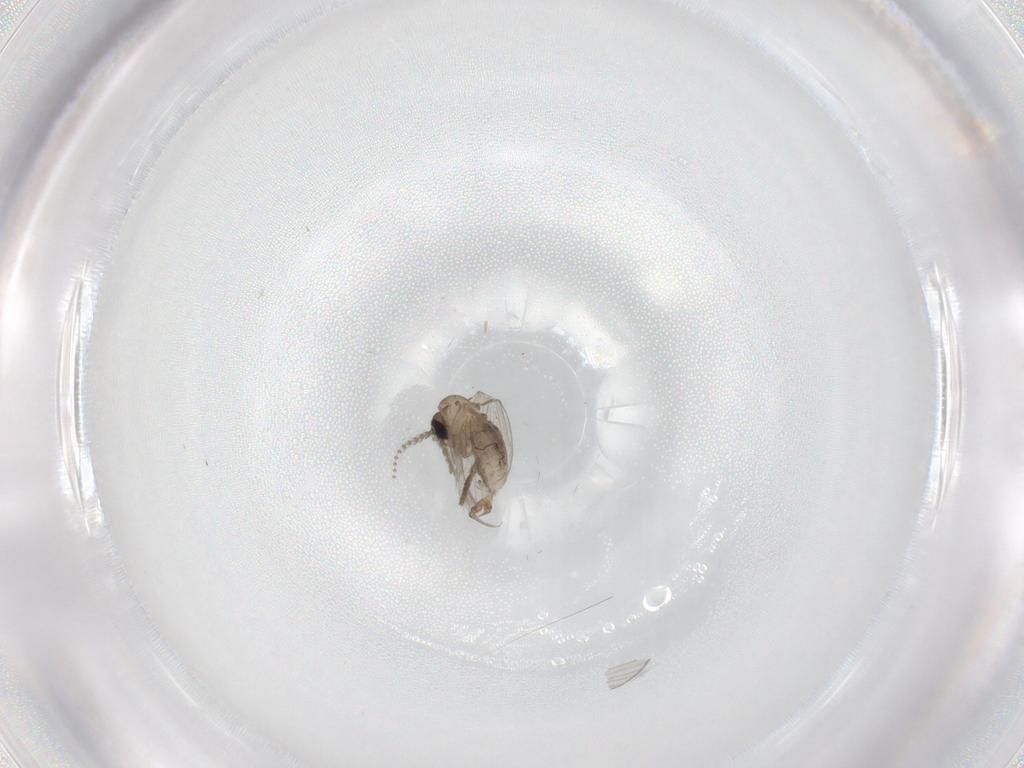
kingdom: Animalia
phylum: Arthropoda
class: Insecta
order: Diptera
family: Psychodidae
